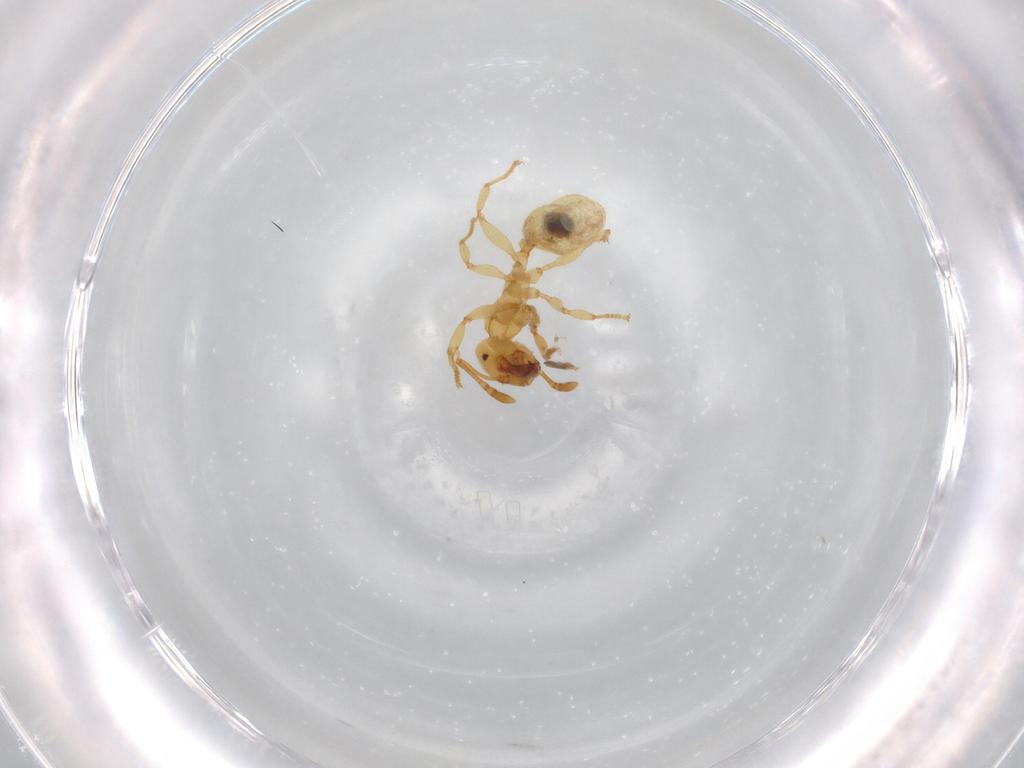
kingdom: Animalia
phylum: Arthropoda
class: Insecta
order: Hymenoptera
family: Formicidae
